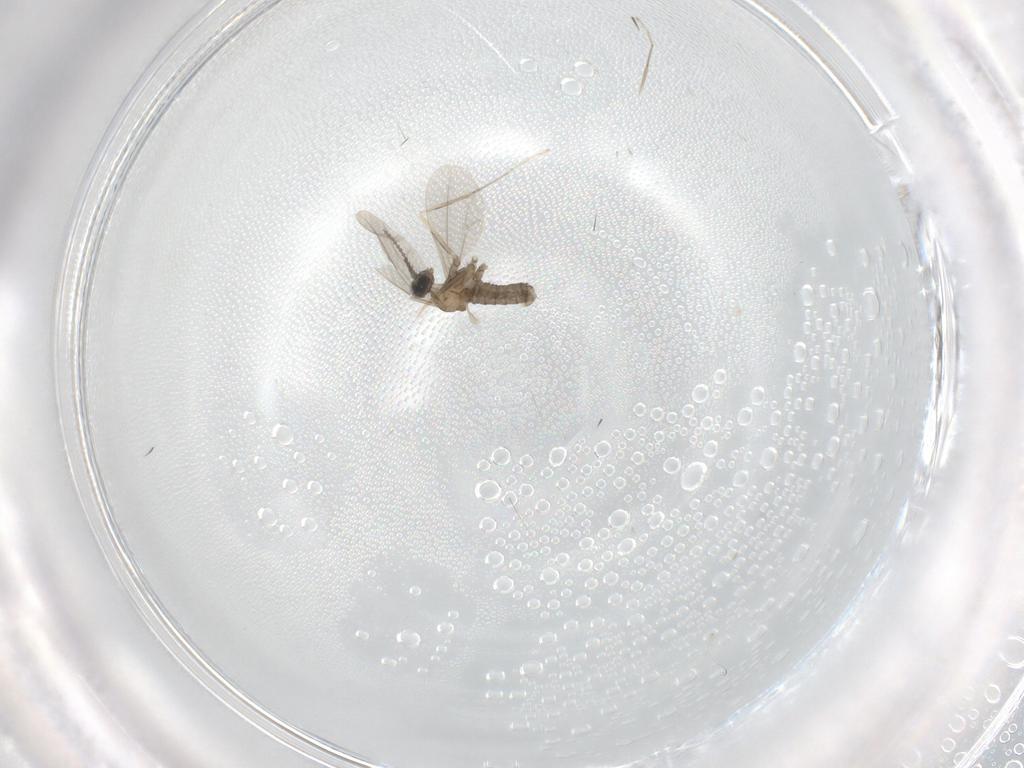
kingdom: Animalia
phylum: Arthropoda
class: Insecta
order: Diptera
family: Cecidomyiidae
